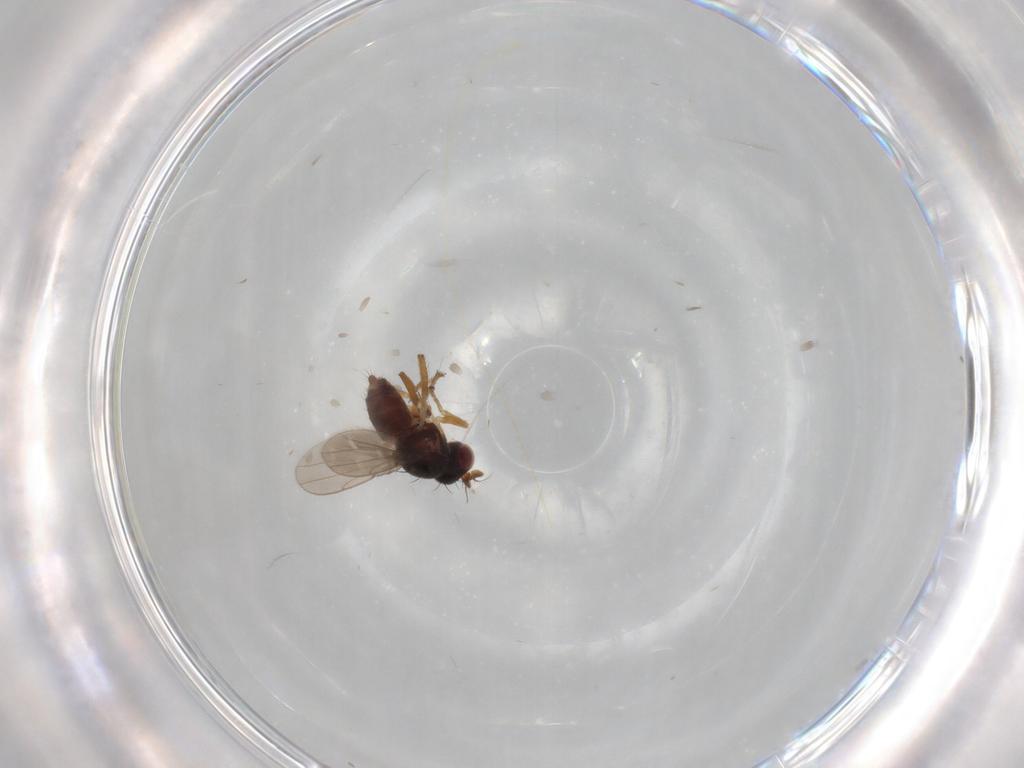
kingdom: Animalia
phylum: Arthropoda
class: Insecta
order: Diptera
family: Ephydridae
